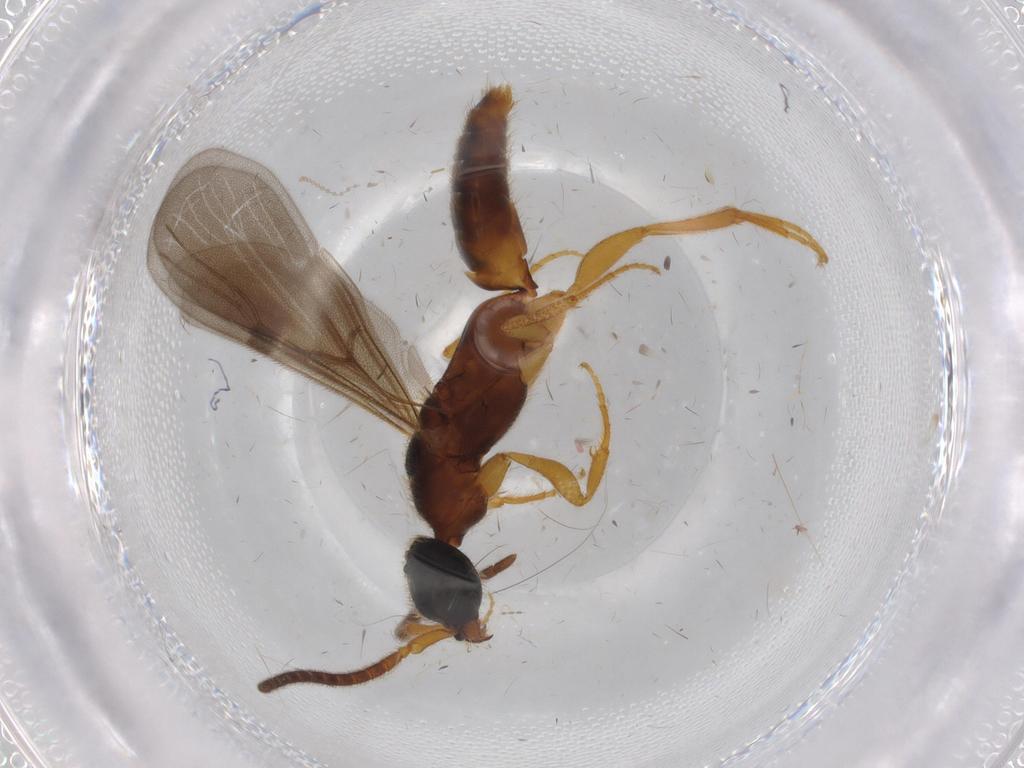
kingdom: Animalia
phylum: Arthropoda
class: Insecta
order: Hymenoptera
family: Bethylidae
